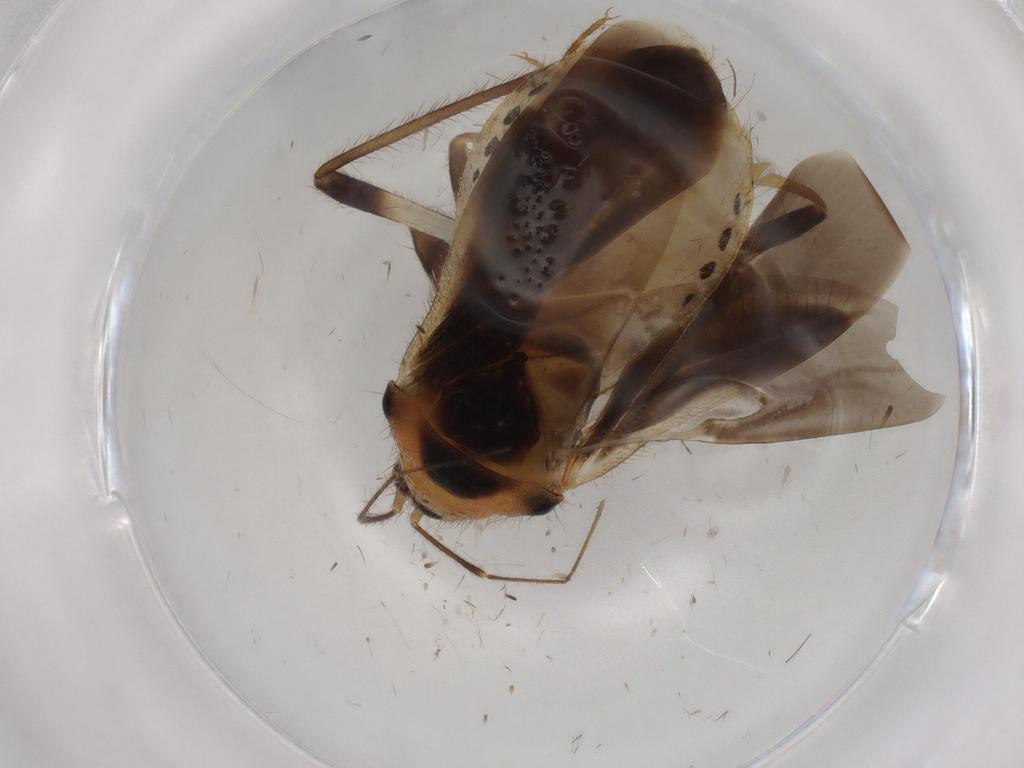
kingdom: Animalia
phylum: Arthropoda
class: Insecta
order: Hemiptera
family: Nabidae
